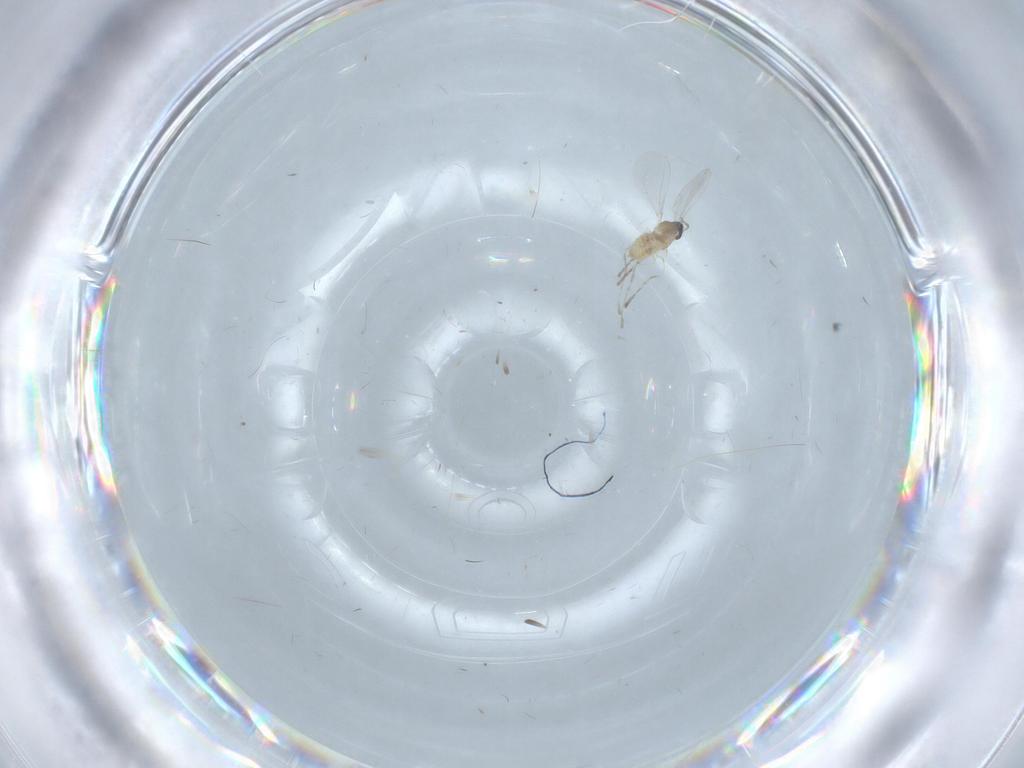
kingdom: Animalia
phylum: Arthropoda
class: Insecta
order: Diptera
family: Cecidomyiidae
